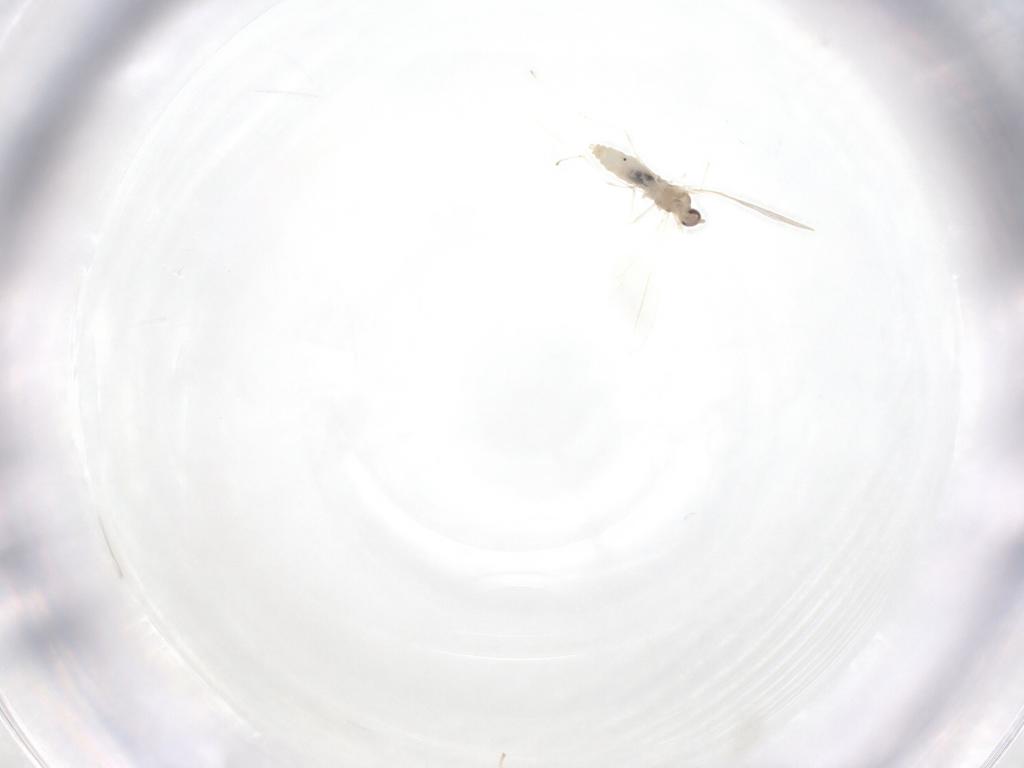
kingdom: Animalia
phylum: Arthropoda
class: Insecta
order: Diptera
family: Cecidomyiidae
